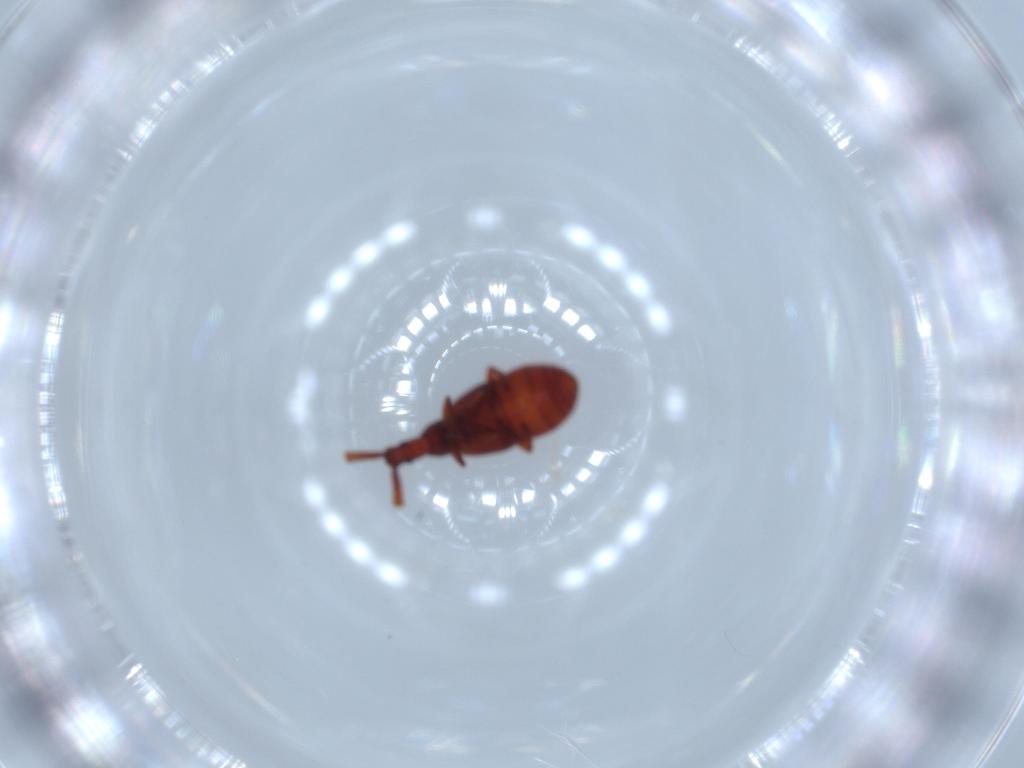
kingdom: Animalia
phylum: Arthropoda
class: Insecta
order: Coleoptera
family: Staphylinidae
